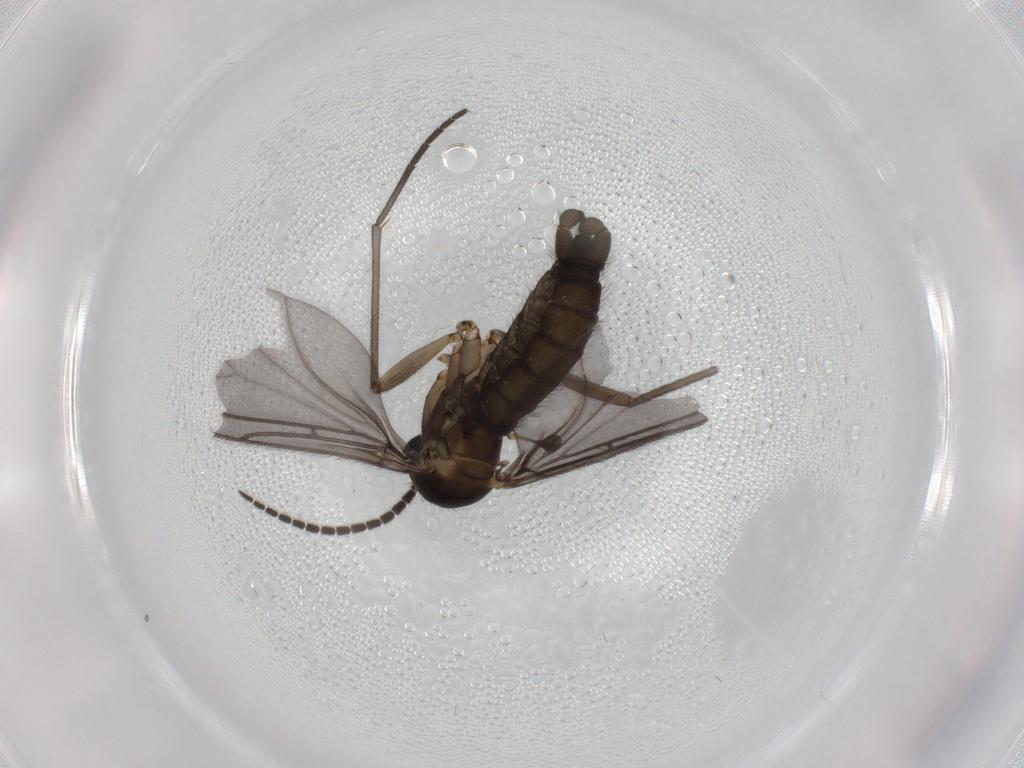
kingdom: Animalia
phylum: Arthropoda
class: Insecta
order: Diptera
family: Sciaridae
